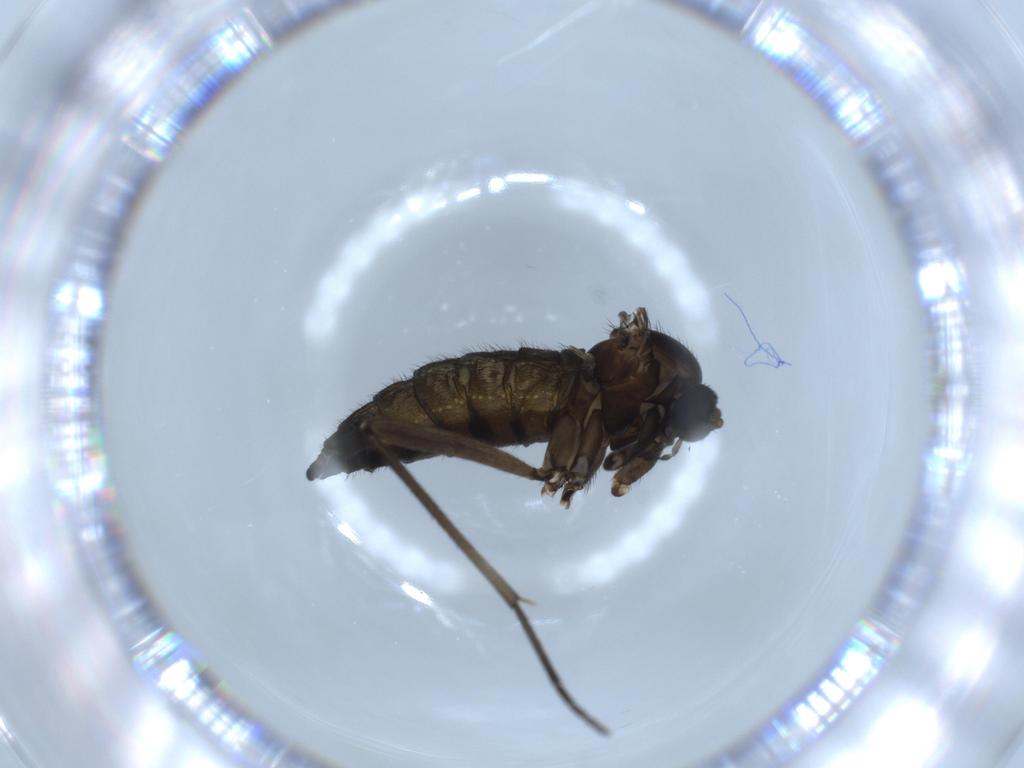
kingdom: Animalia
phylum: Arthropoda
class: Insecta
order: Diptera
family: Sciaridae
